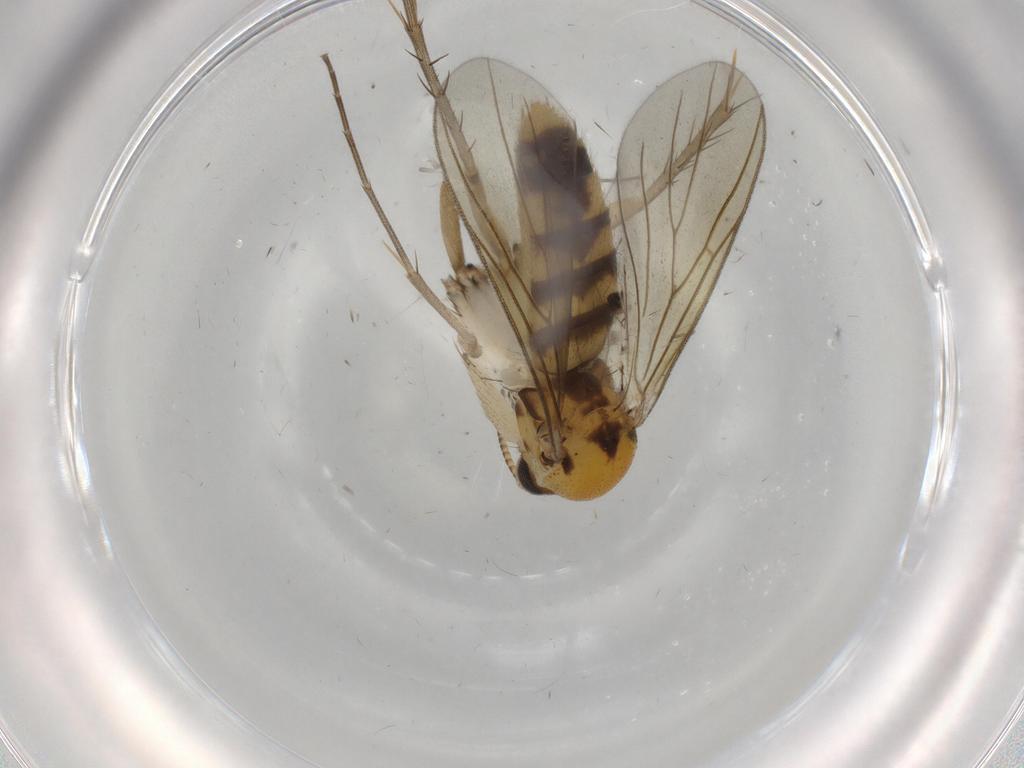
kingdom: Animalia
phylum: Arthropoda
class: Insecta
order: Diptera
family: Mycetophilidae
